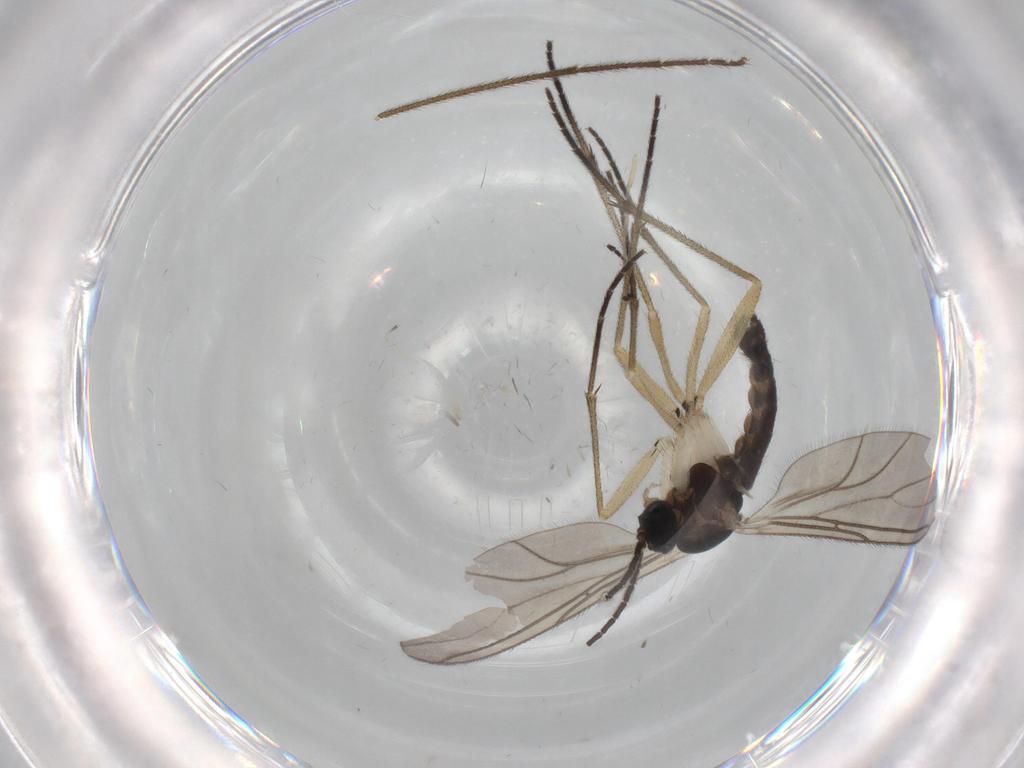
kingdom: Animalia
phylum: Arthropoda
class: Insecta
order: Diptera
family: Sciaridae
